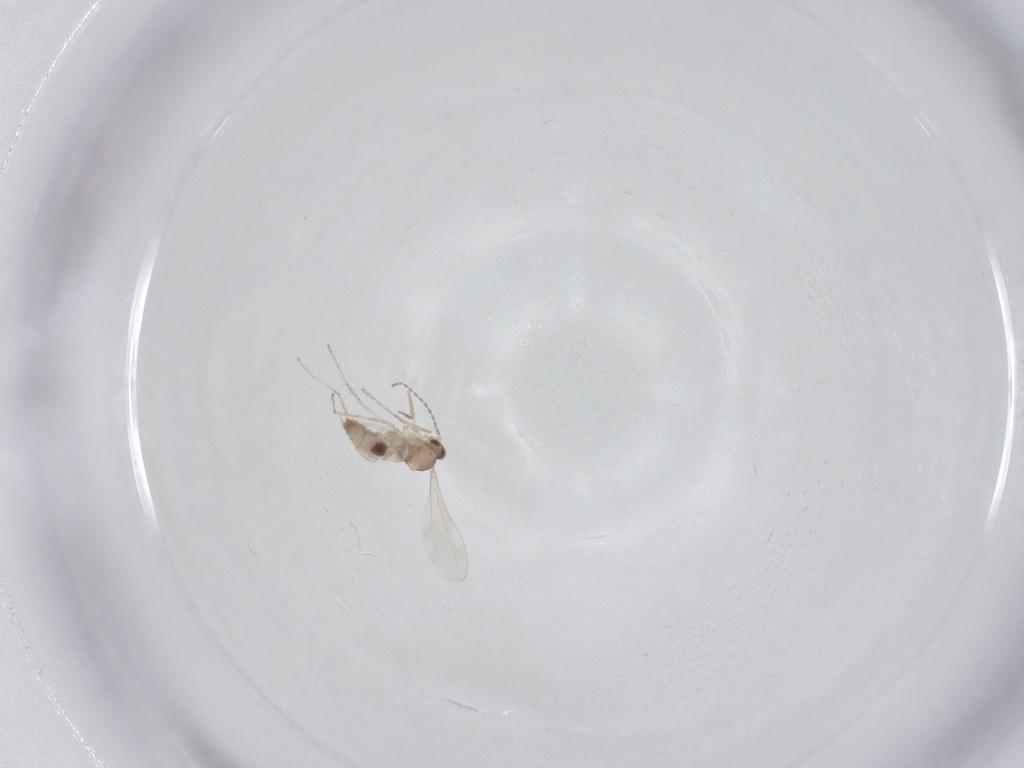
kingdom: Animalia
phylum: Arthropoda
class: Insecta
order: Diptera
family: Cecidomyiidae
